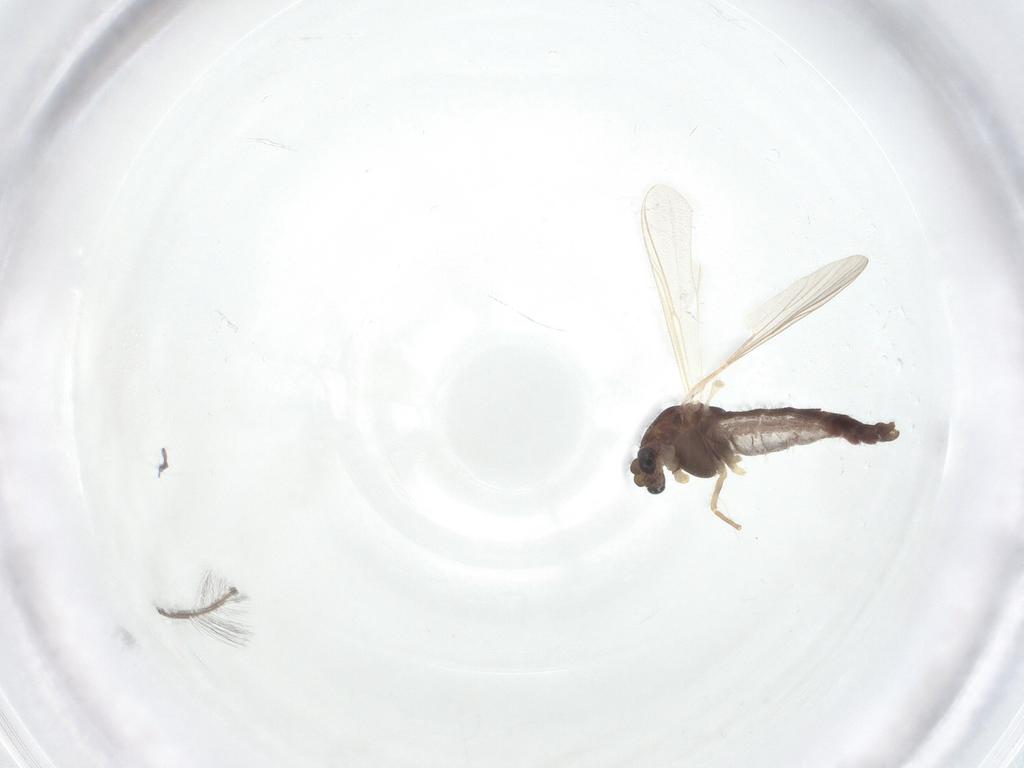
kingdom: Animalia
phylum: Arthropoda
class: Insecta
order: Diptera
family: Chironomidae
